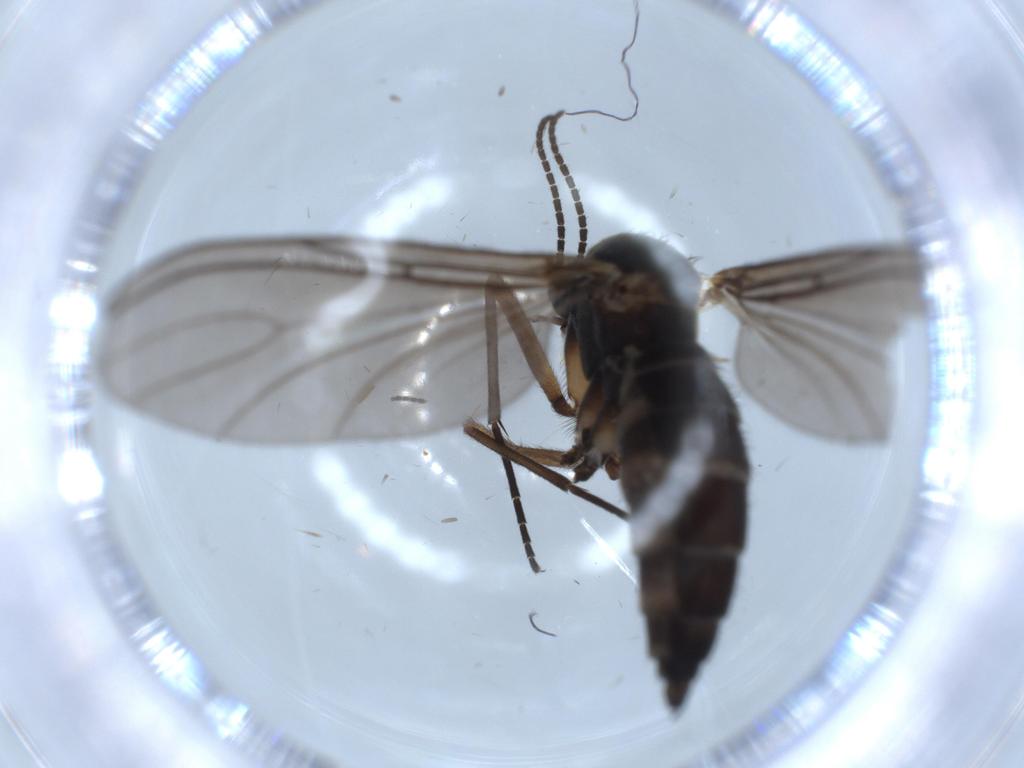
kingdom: Animalia
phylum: Arthropoda
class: Insecta
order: Diptera
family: Sciaridae
